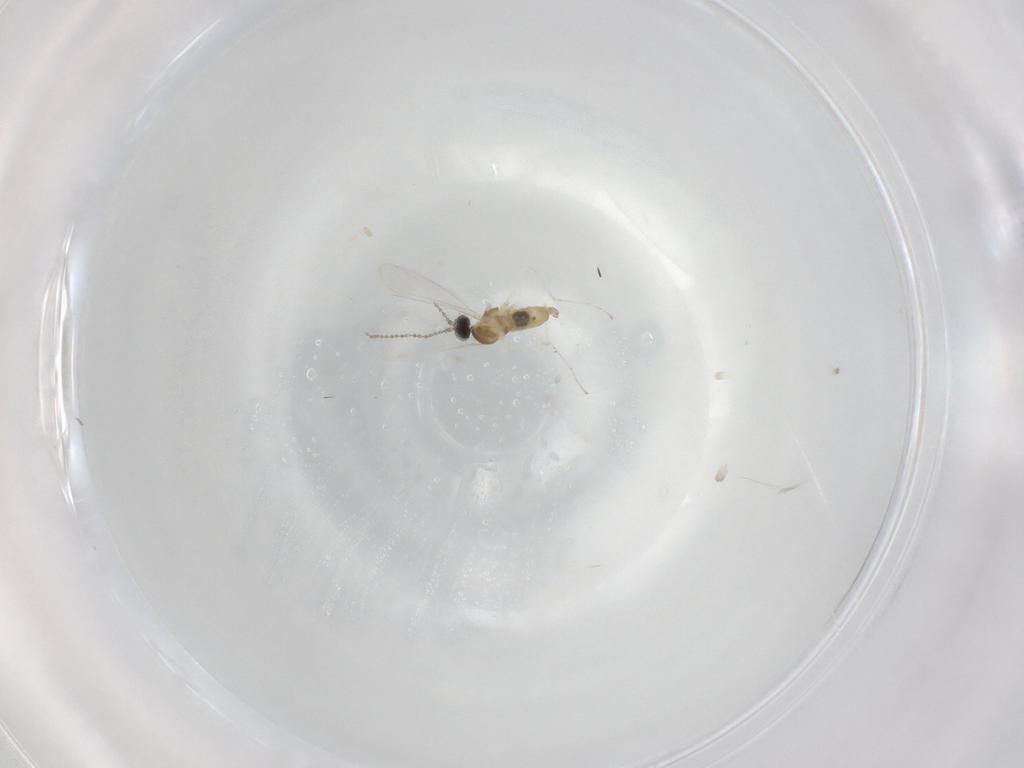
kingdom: Animalia
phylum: Arthropoda
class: Insecta
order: Diptera
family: Cecidomyiidae
